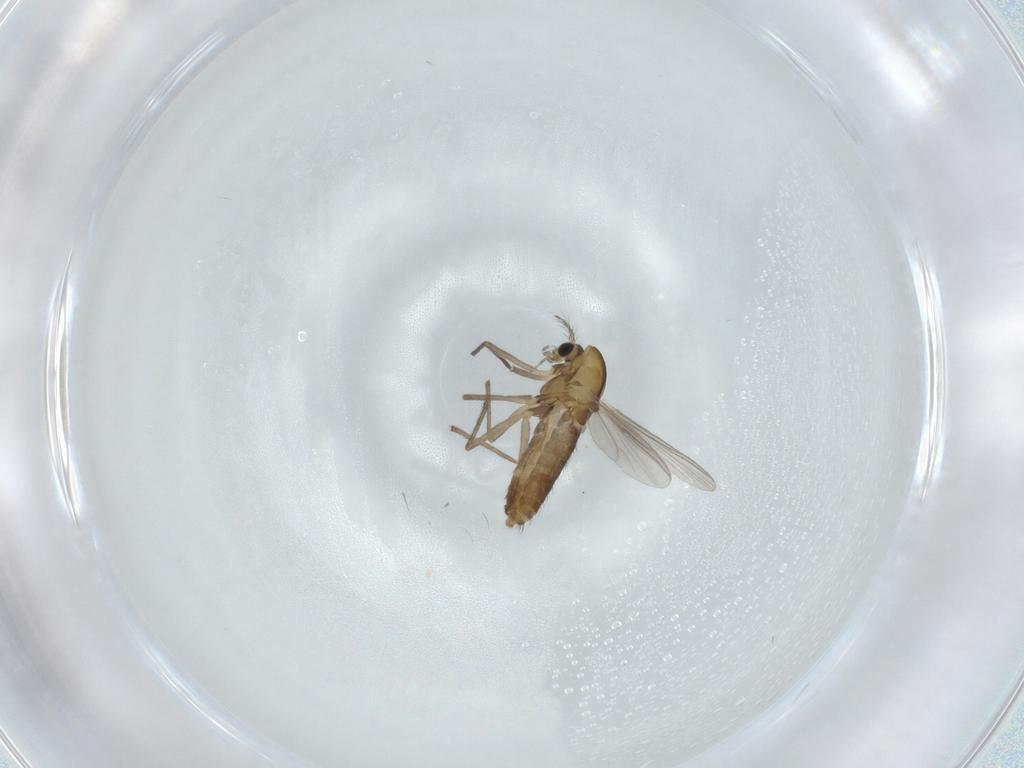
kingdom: Animalia
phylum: Arthropoda
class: Insecta
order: Diptera
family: Chironomidae
